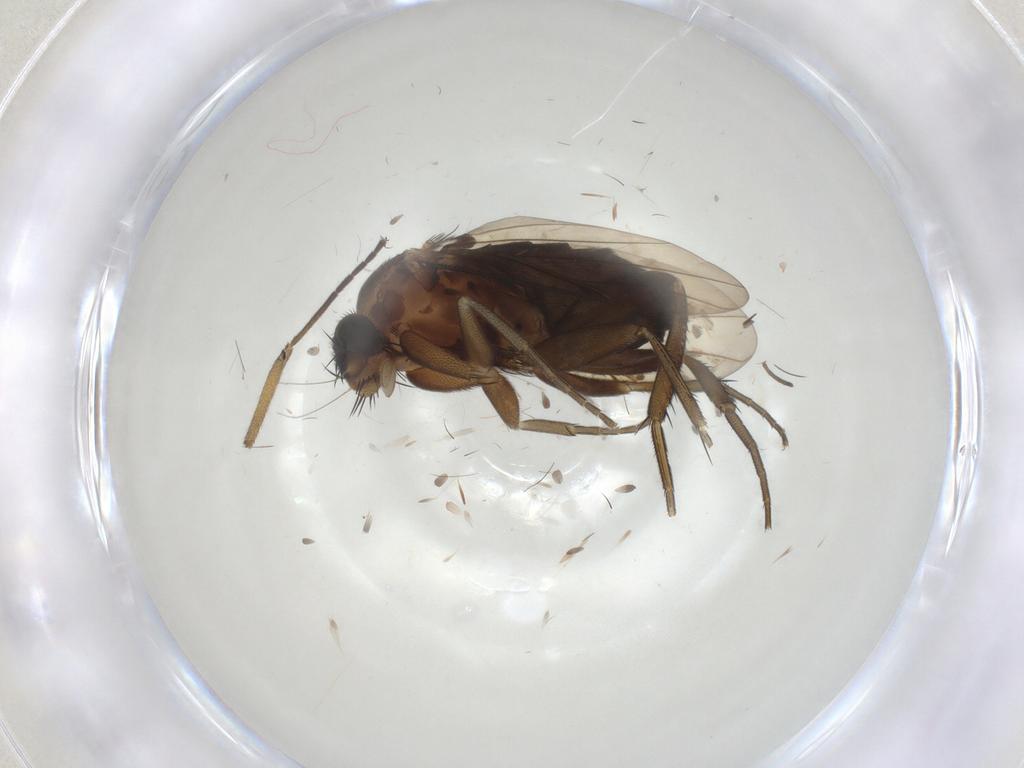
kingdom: Animalia
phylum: Arthropoda
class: Insecta
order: Diptera
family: Phoridae
